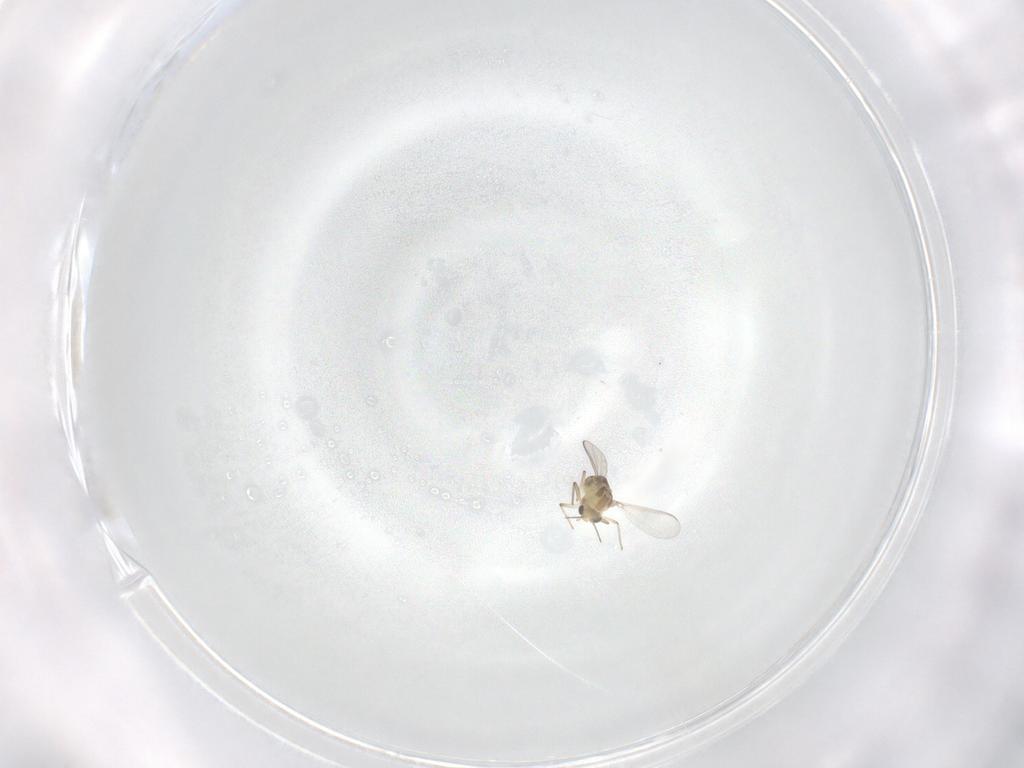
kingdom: Animalia
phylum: Arthropoda
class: Insecta
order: Diptera
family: Chironomidae
